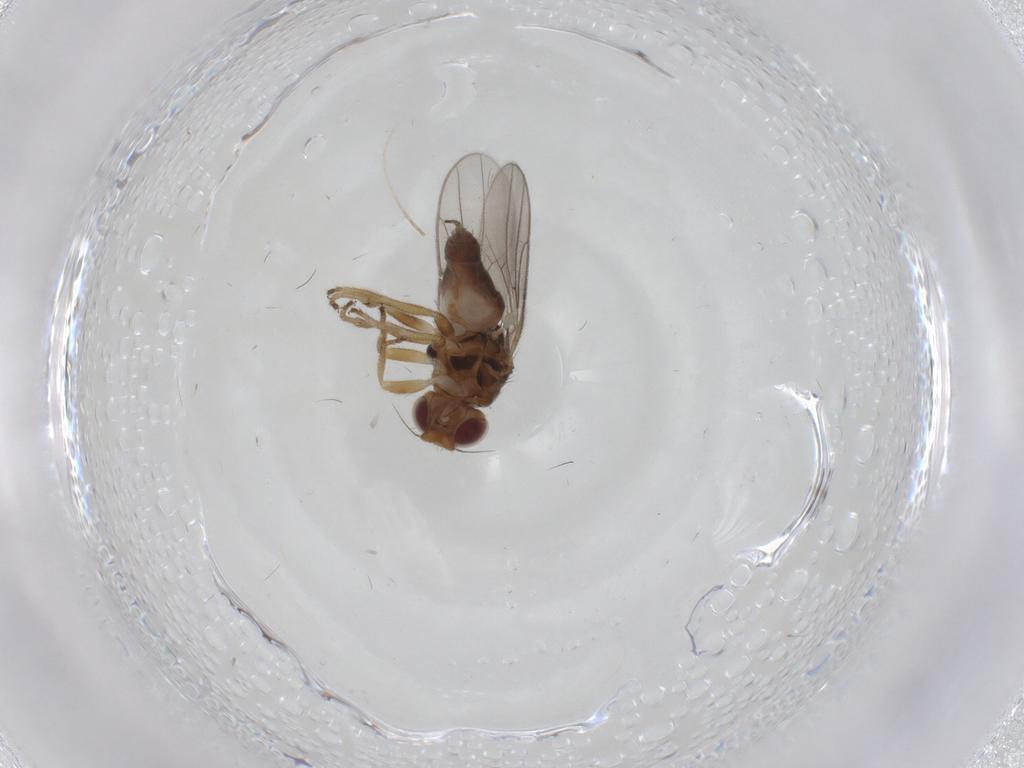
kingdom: Animalia
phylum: Arthropoda
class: Insecta
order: Diptera
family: Chloropidae
